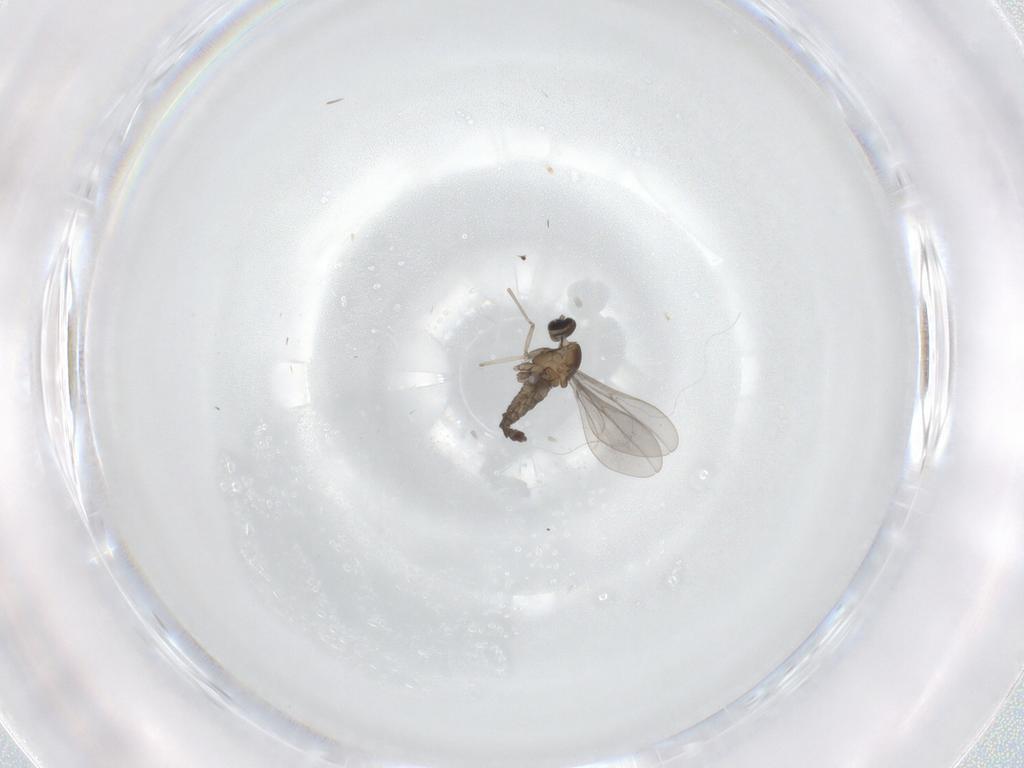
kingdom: Animalia
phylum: Arthropoda
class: Insecta
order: Diptera
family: Cecidomyiidae
